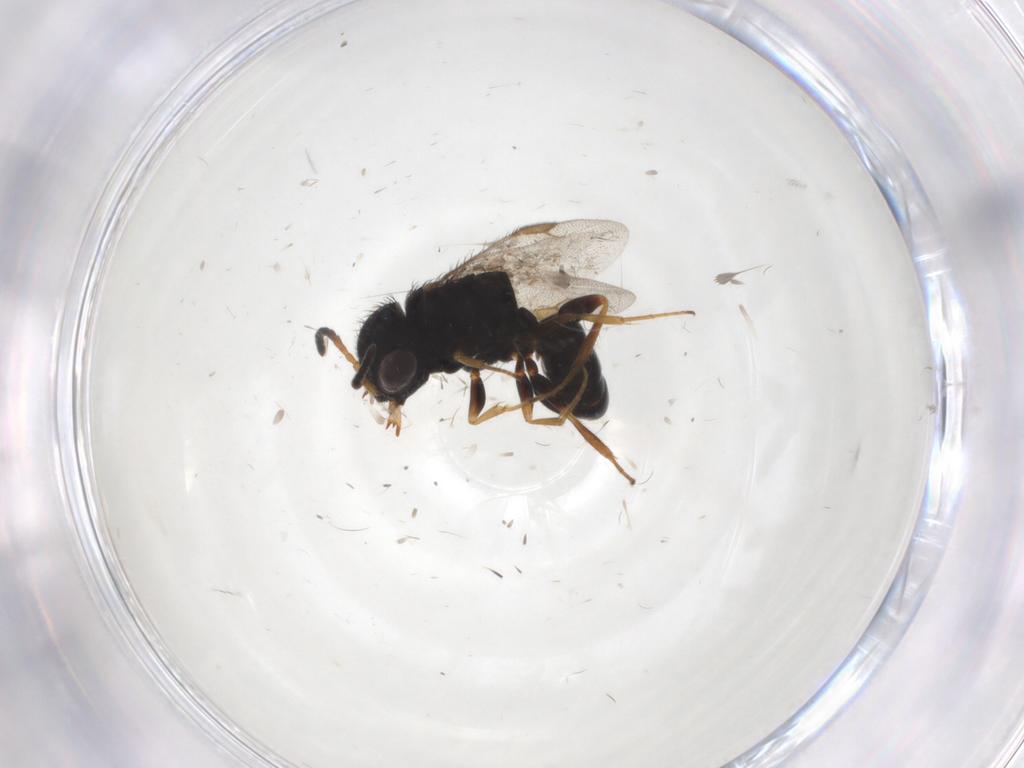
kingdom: Animalia
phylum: Arthropoda
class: Insecta
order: Hymenoptera
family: Dryinidae
